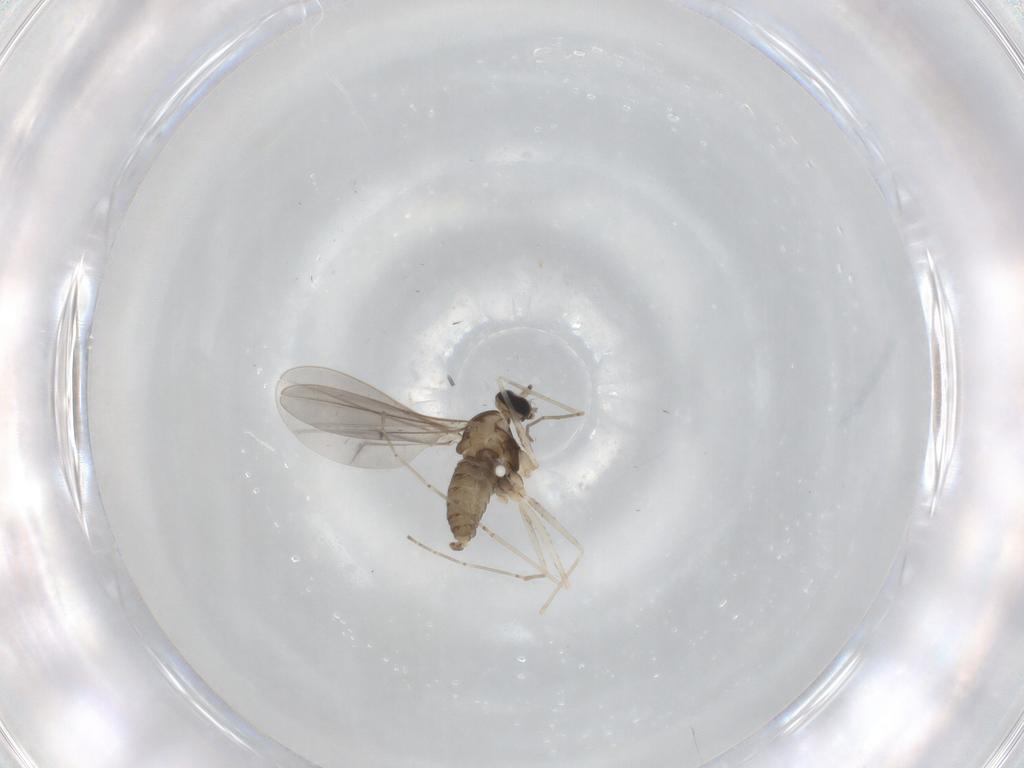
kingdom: Animalia
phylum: Arthropoda
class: Insecta
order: Diptera
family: Cecidomyiidae
